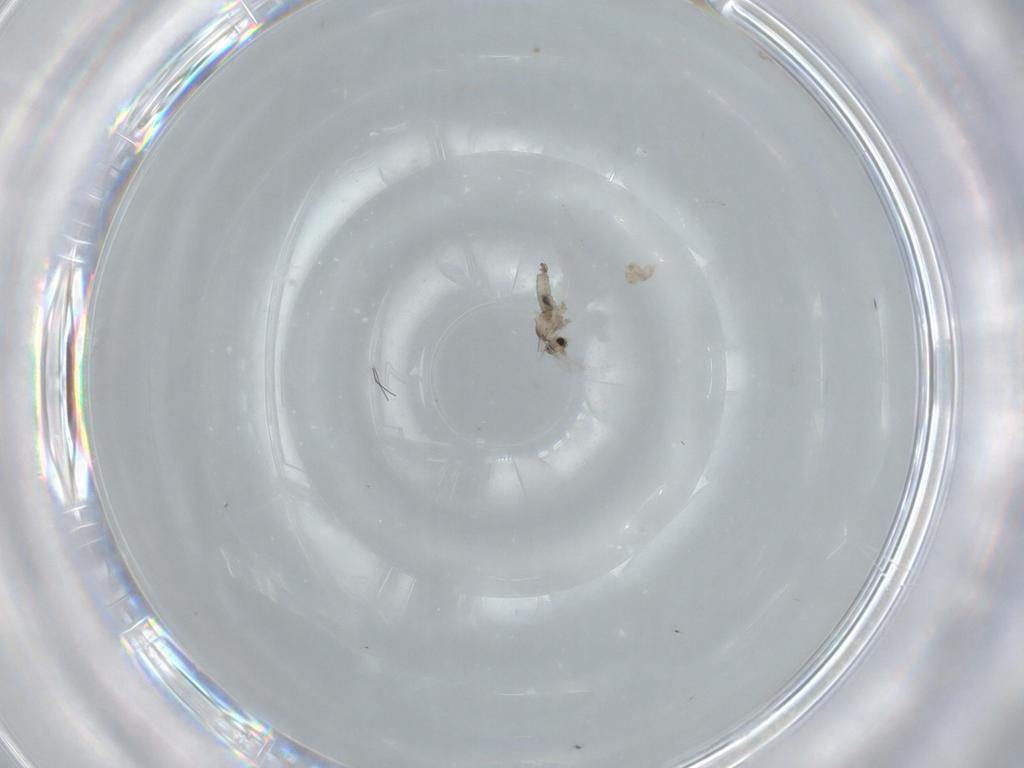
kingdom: Animalia
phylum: Arthropoda
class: Insecta
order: Diptera
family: Cecidomyiidae
